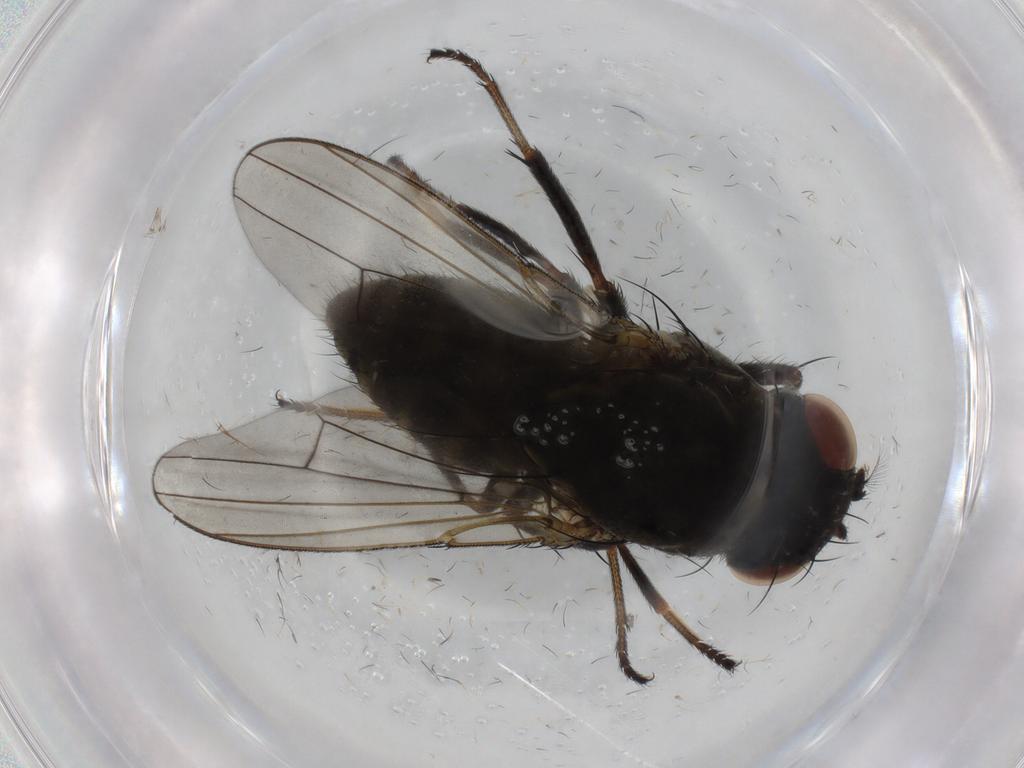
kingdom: Animalia
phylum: Arthropoda
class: Insecta
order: Diptera
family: Ephydridae
